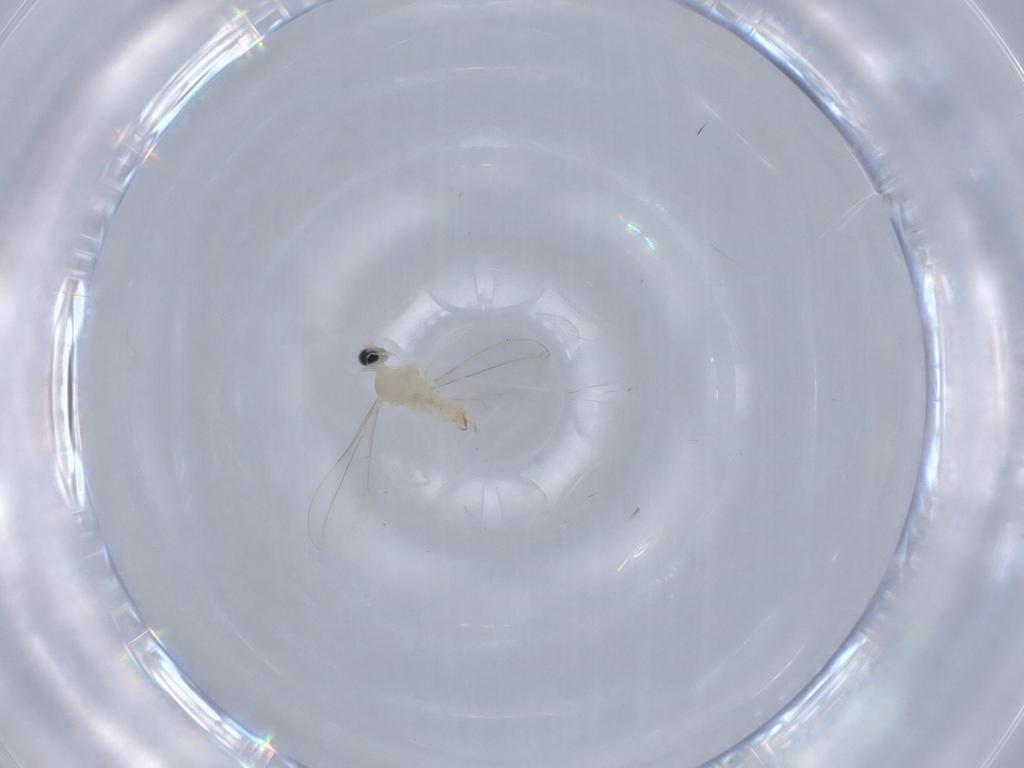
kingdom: Animalia
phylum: Arthropoda
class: Insecta
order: Diptera
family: Cecidomyiidae
